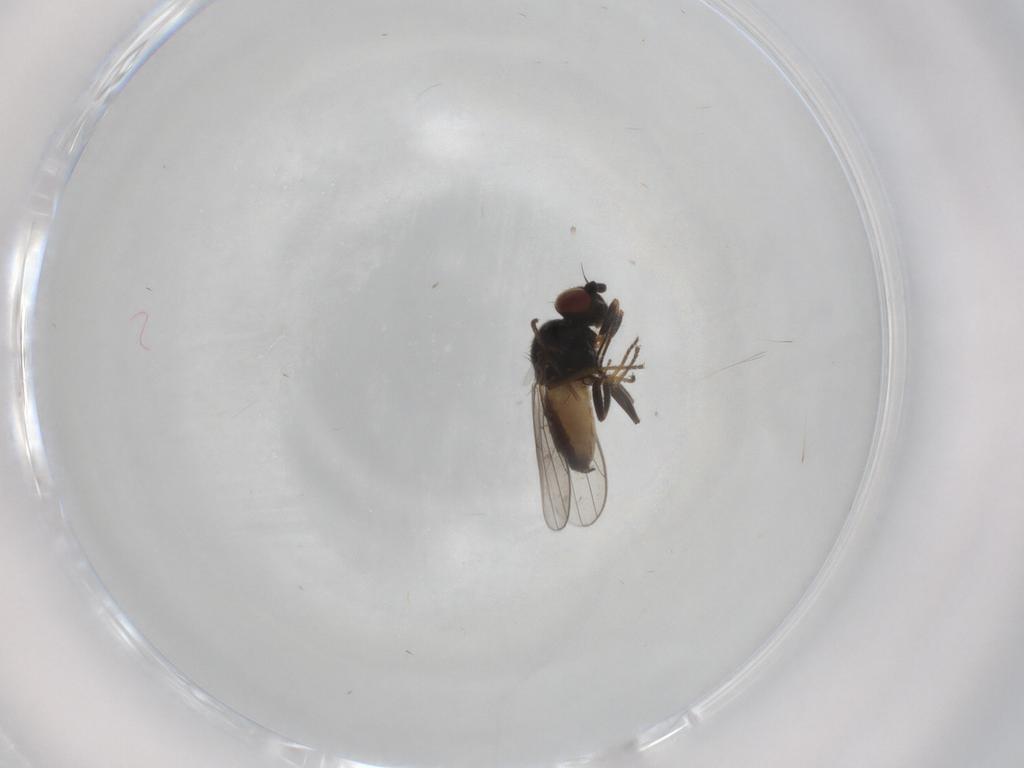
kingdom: Animalia
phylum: Arthropoda
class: Insecta
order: Diptera
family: Chloropidae
